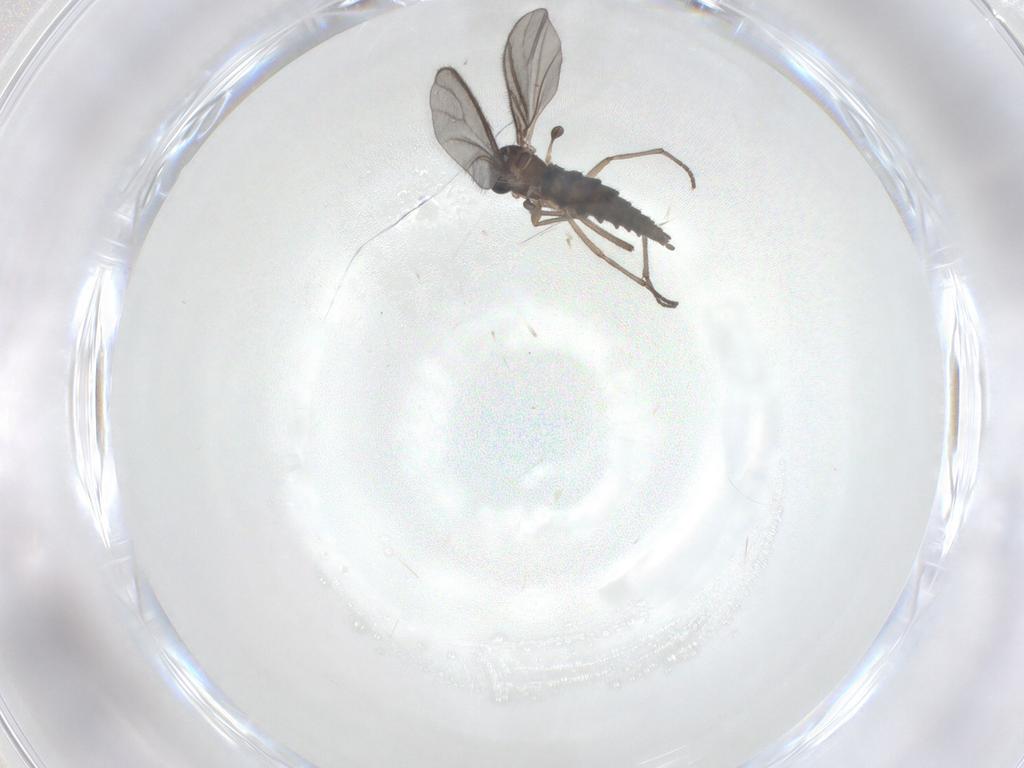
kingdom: Animalia
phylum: Arthropoda
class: Insecta
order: Diptera
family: Sciaridae
